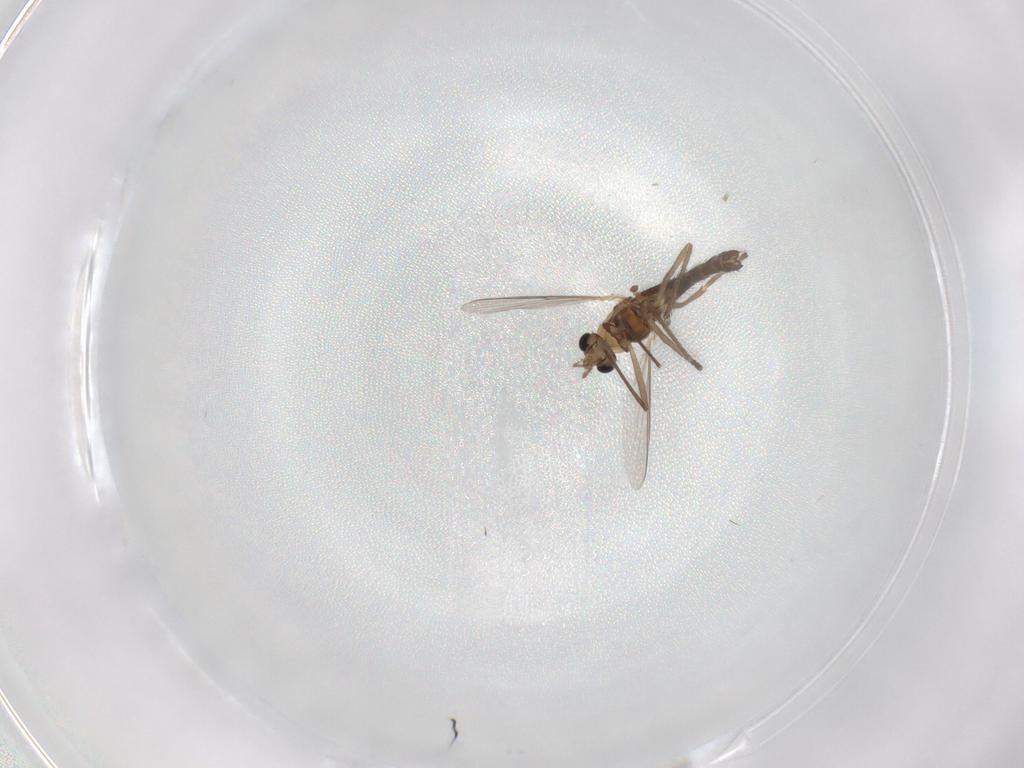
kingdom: Animalia
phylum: Arthropoda
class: Insecta
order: Diptera
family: Chironomidae
